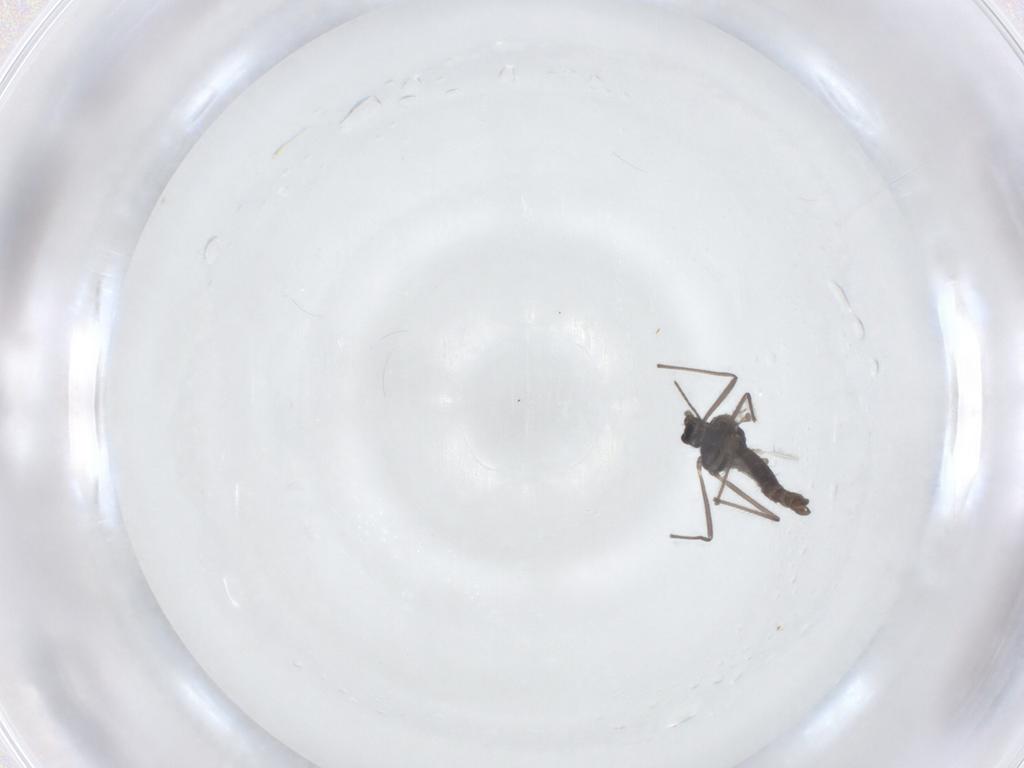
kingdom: Animalia
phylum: Arthropoda
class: Insecta
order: Diptera
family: Chironomidae
